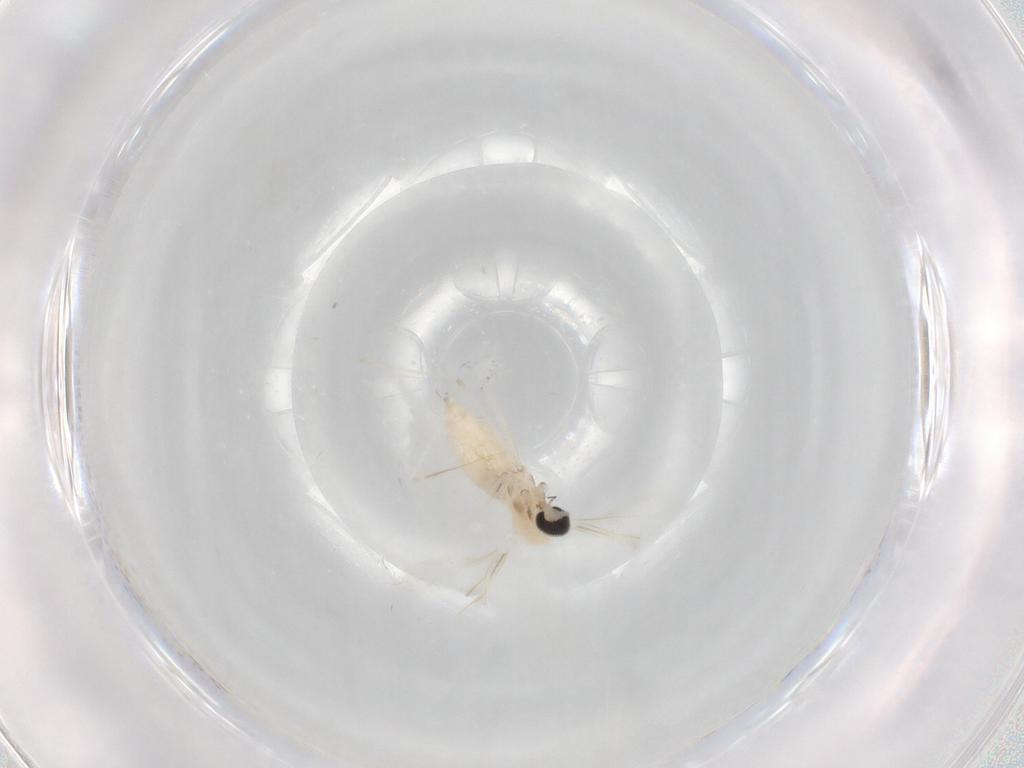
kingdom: Animalia
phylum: Arthropoda
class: Insecta
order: Diptera
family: Cecidomyiidae
